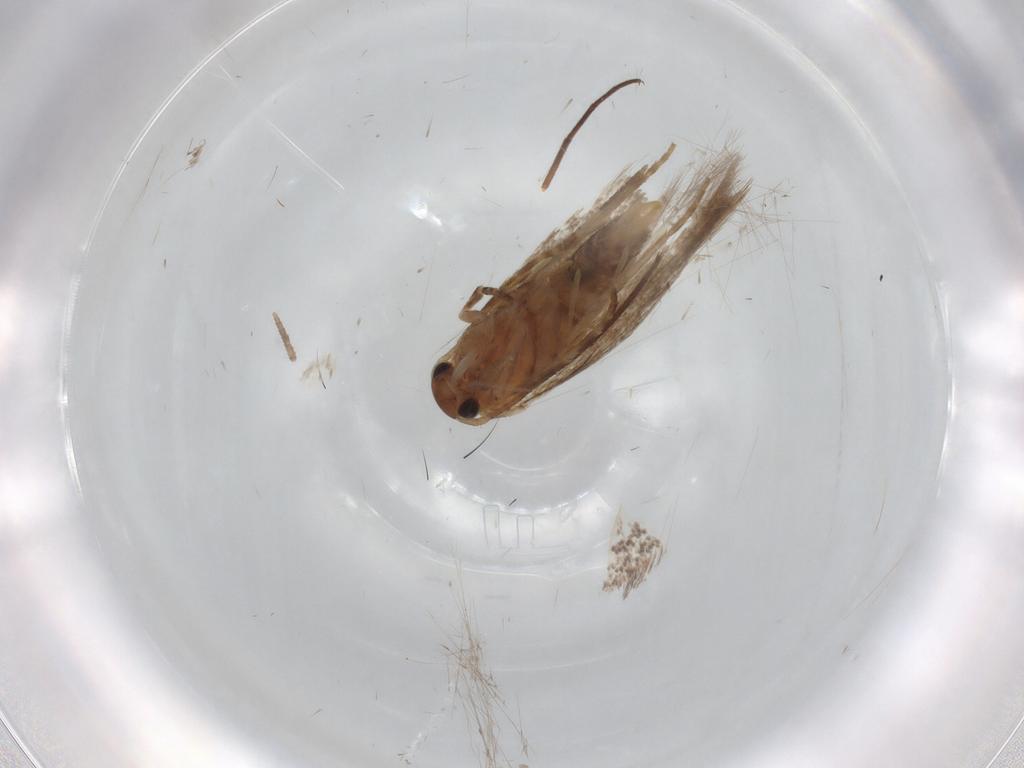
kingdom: Animalia
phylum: Arthropoda
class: Insecta
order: Lepidoptera
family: Elachistidae
